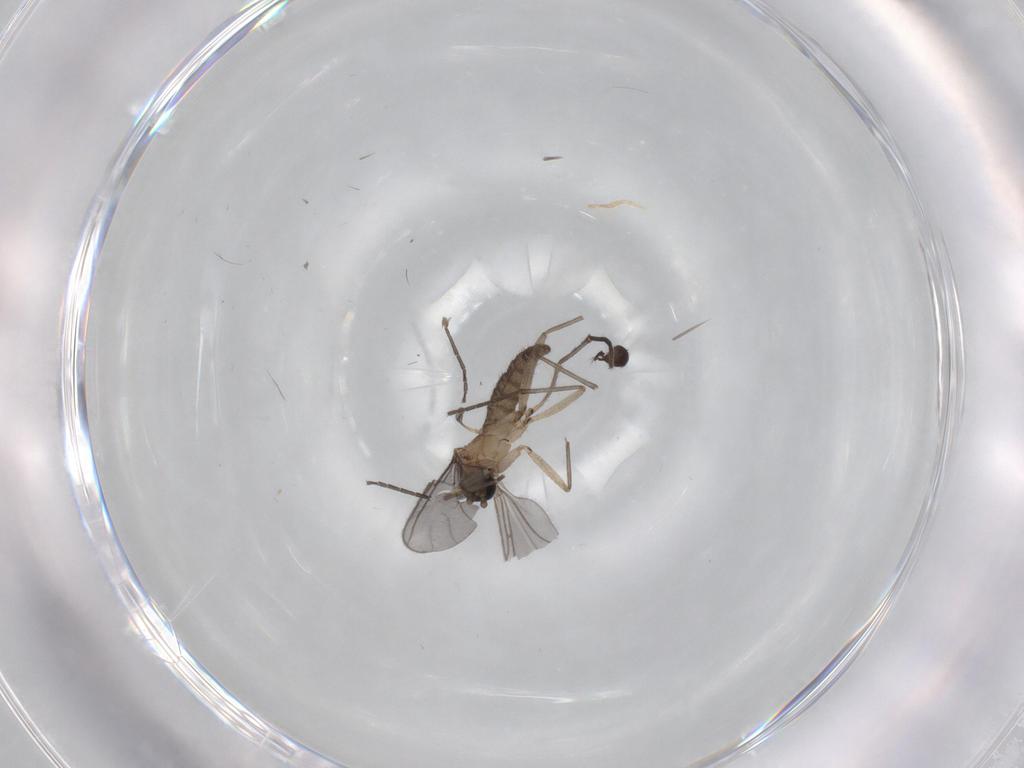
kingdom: Animalia
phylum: Arthropoda
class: Insecta
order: Diptera
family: Sciaridae
